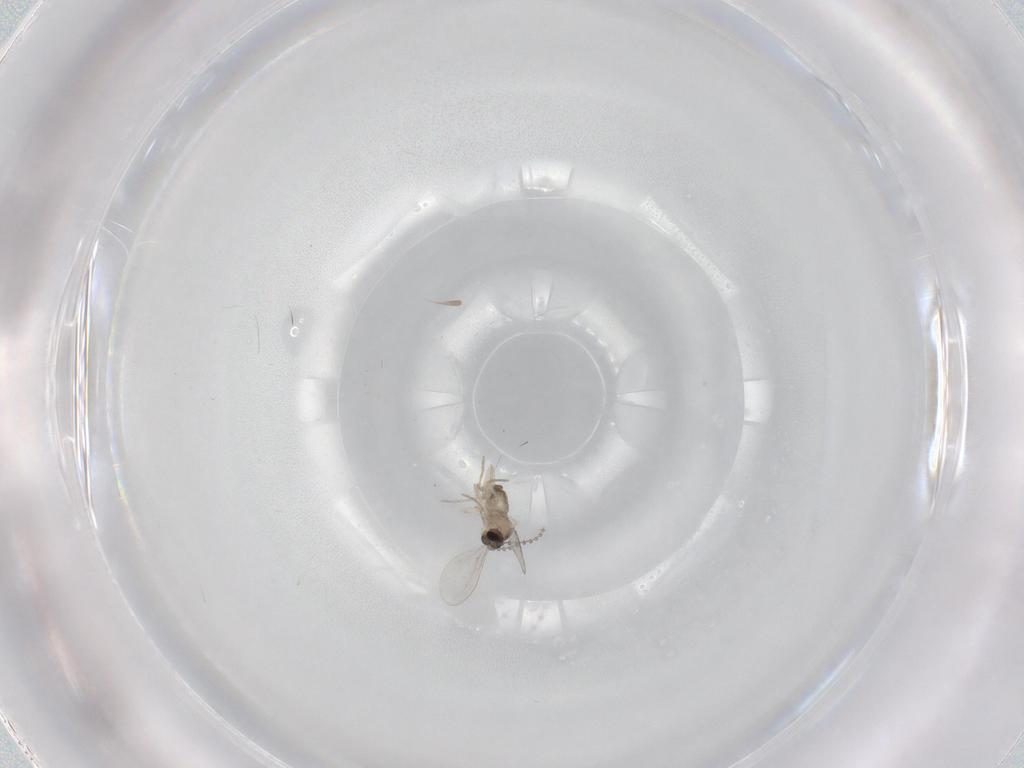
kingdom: Animalia
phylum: Arthropoda
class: Insecta
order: Diptera
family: Cecidomyiidae
